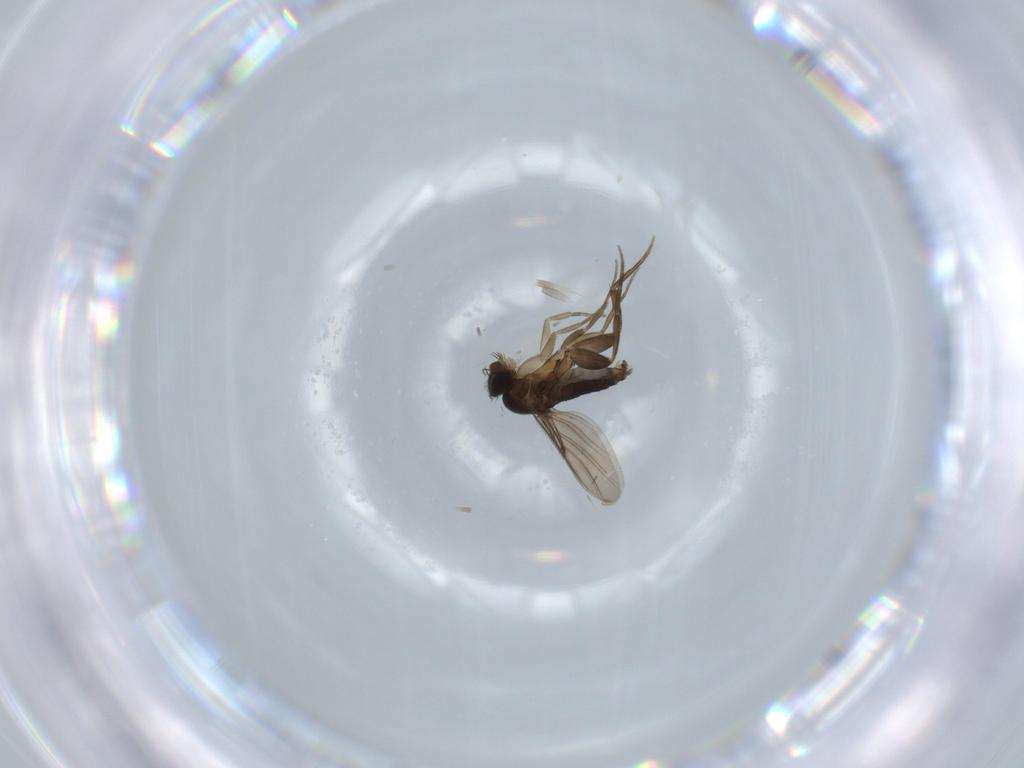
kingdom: Animalia
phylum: Arthropoda
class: Insecta
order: Diptera
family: Phoridae
